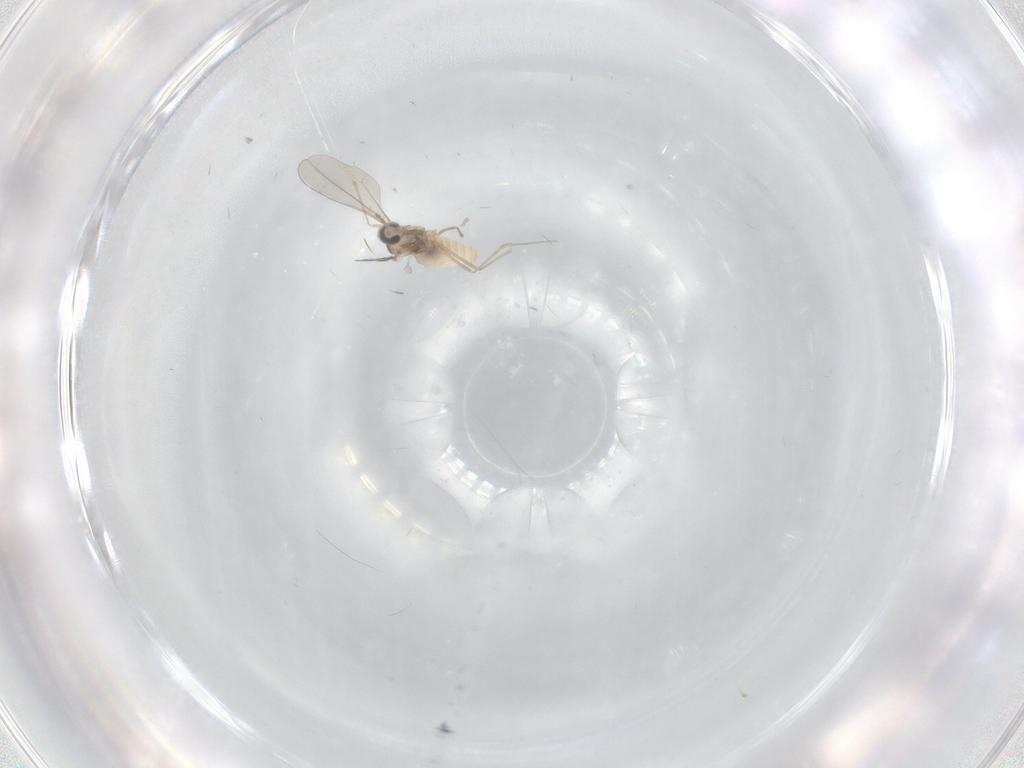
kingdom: Animalia
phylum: Arthropoda
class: Insecta
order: Diptera
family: Cecidomyiidae
